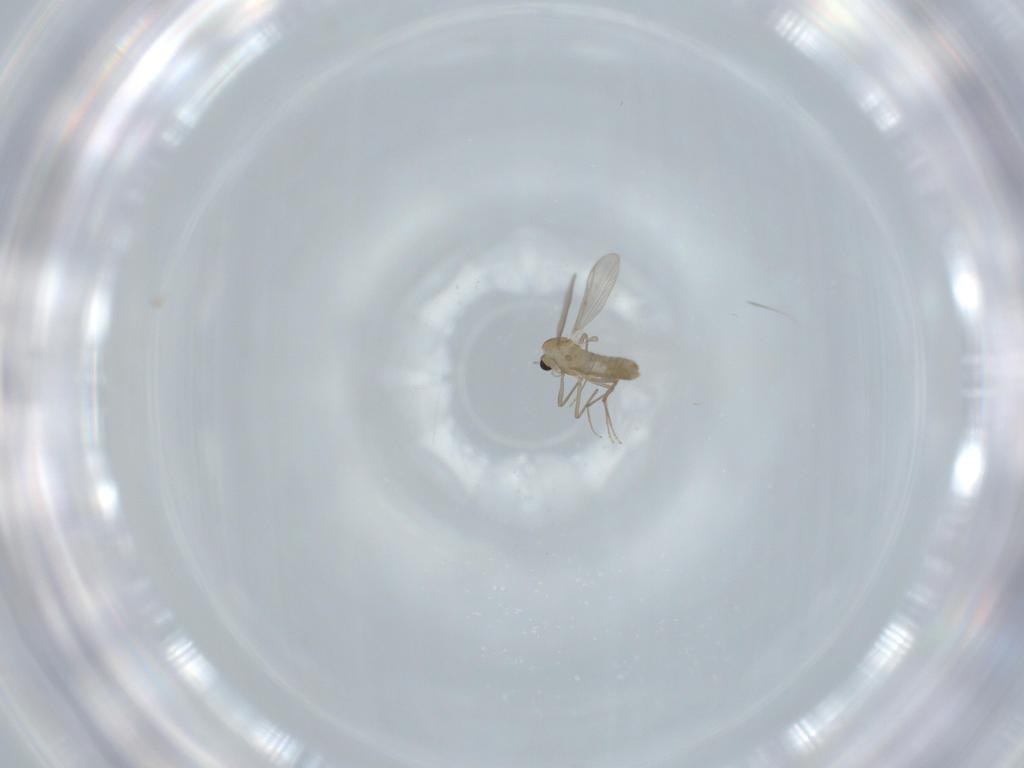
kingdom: Animalia
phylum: Arthropoda
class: Insecta
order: Diptera
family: Chironomidae
